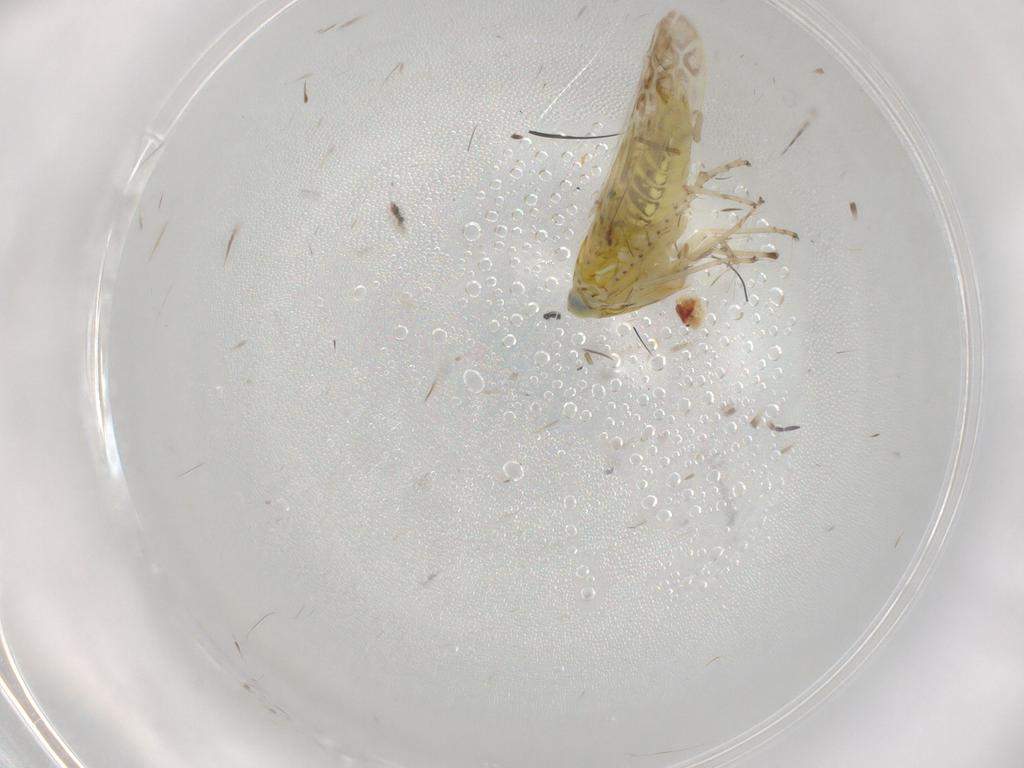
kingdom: Animalia
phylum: Arthropoda
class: Insecta
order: Hemiptera
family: Cicadellidae
